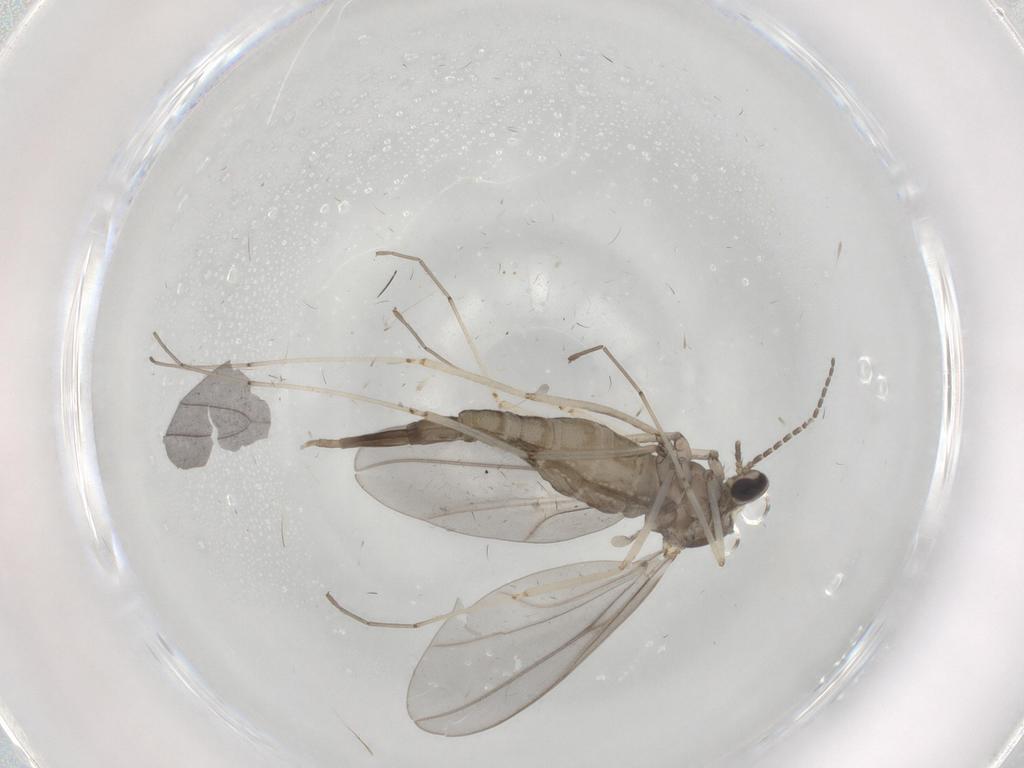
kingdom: Animalia
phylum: Arthropoda
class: Insecta
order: Diptera
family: Cecidomyiidae
